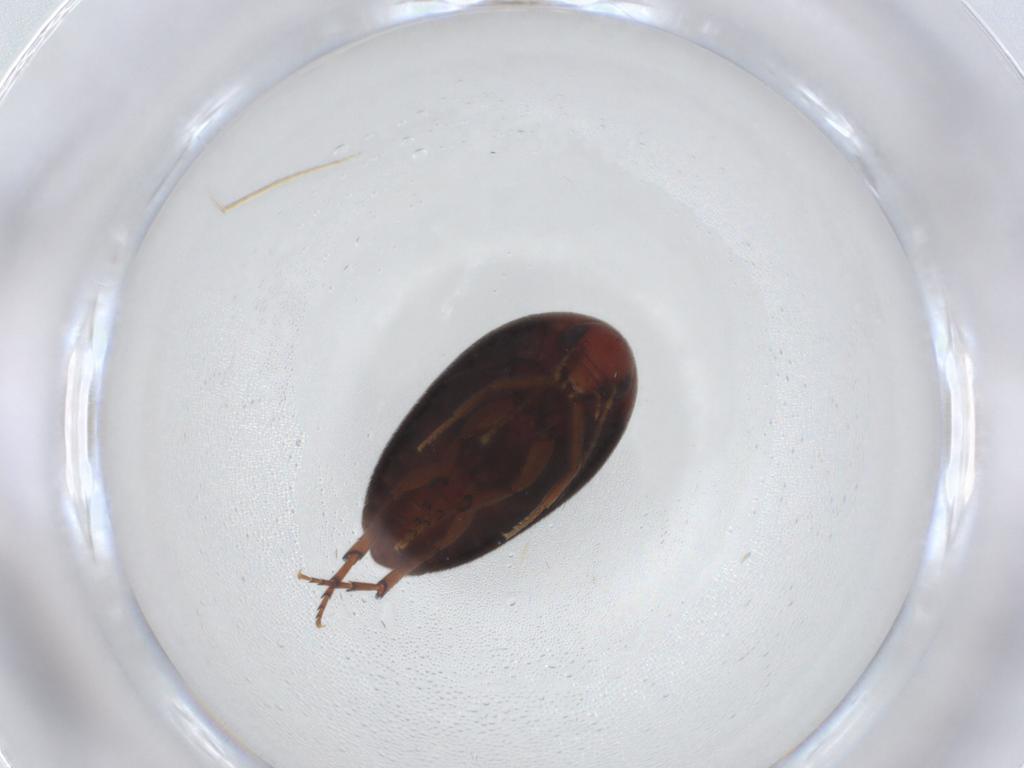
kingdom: Animalia
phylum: Arthropoda
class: Insecta
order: Coleoptera
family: Eucinetidae
